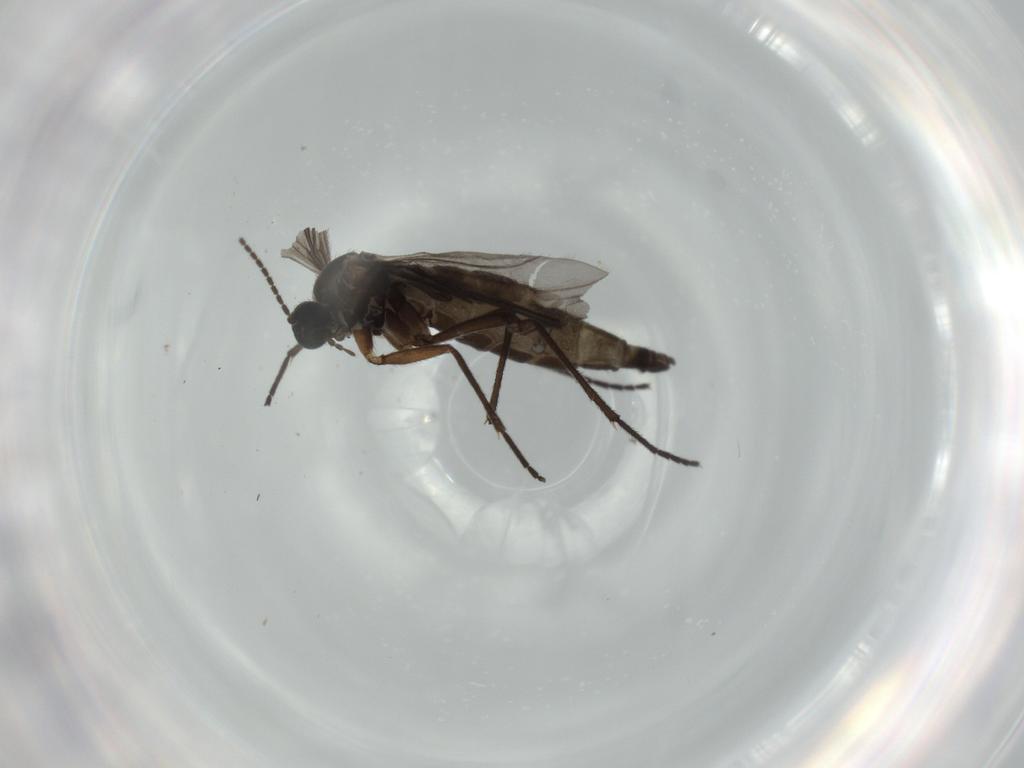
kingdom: Animalia
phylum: Arthropoda
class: Insecta
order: Diptera
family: Sciaridae
